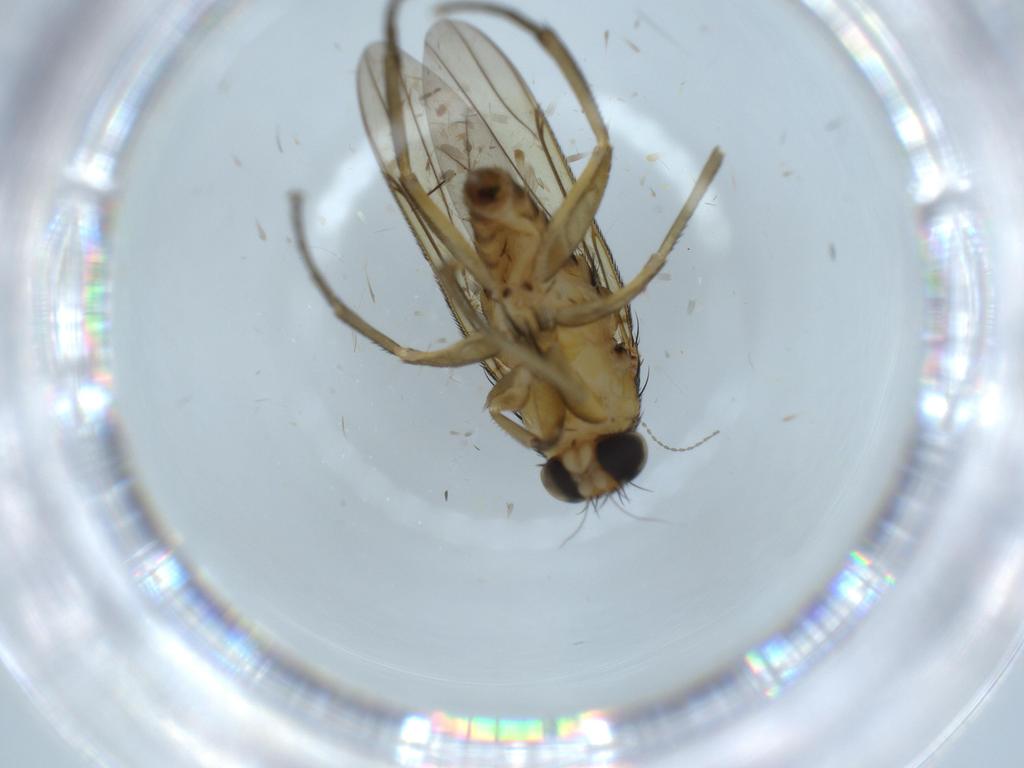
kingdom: Animalia
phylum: Arthropoda
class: Insecta
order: Diptera
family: Chironomidae
